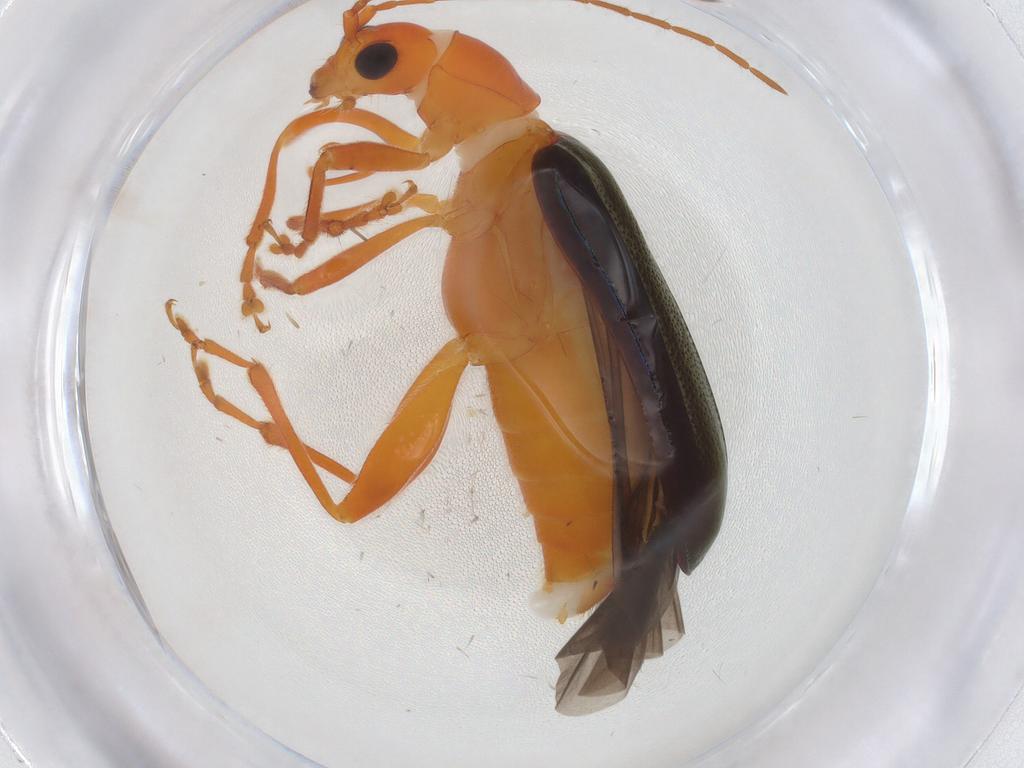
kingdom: Animalia
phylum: Arthropoda
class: Insecta
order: Coleoptera
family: Chrysomelidae
